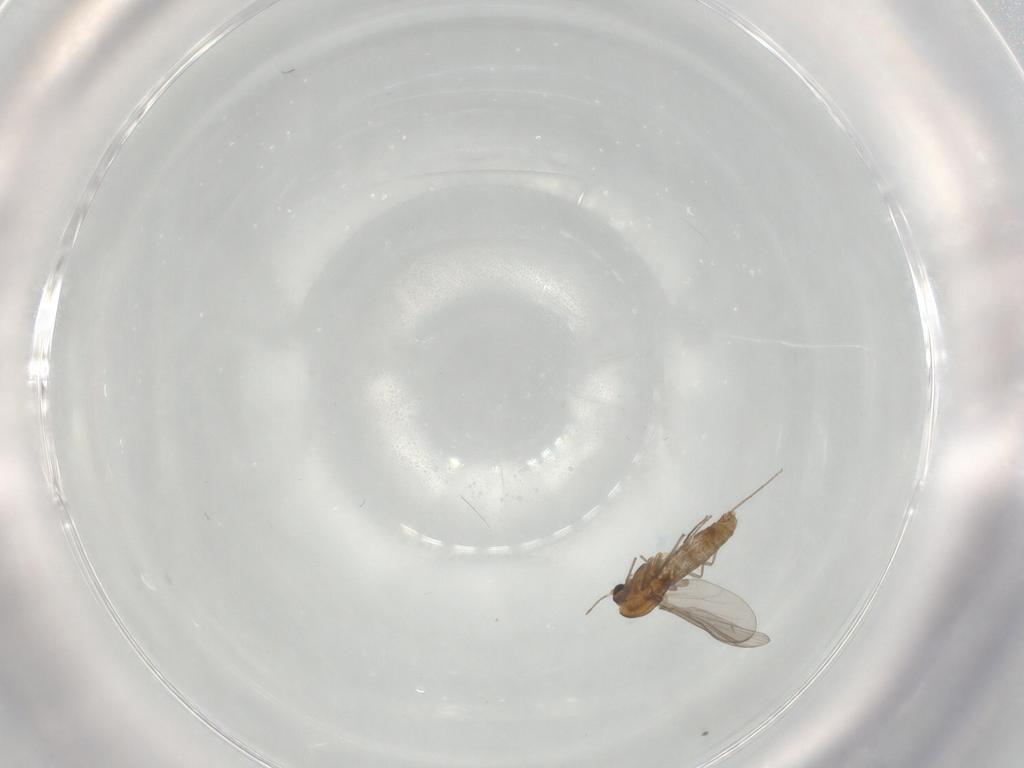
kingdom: Animalia
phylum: Arthropoda
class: Insecta
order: Diptera
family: Chironomidae
